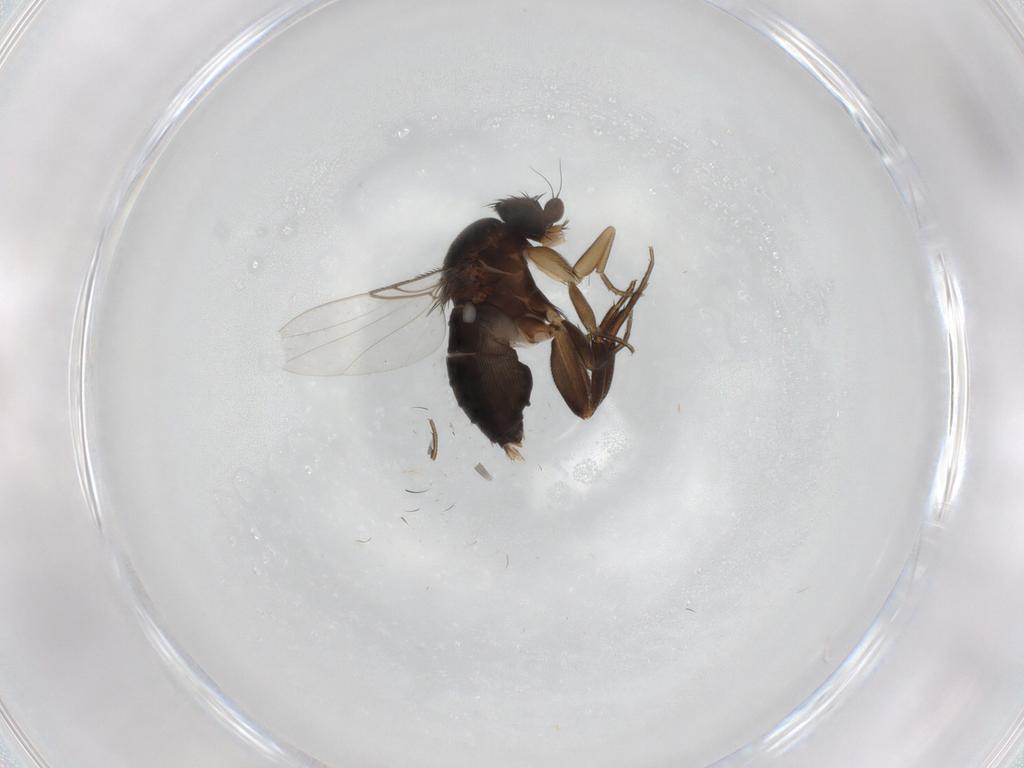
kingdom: Animalia
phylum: Arthropoda
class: Insecta
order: Diptera
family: Phoridae
